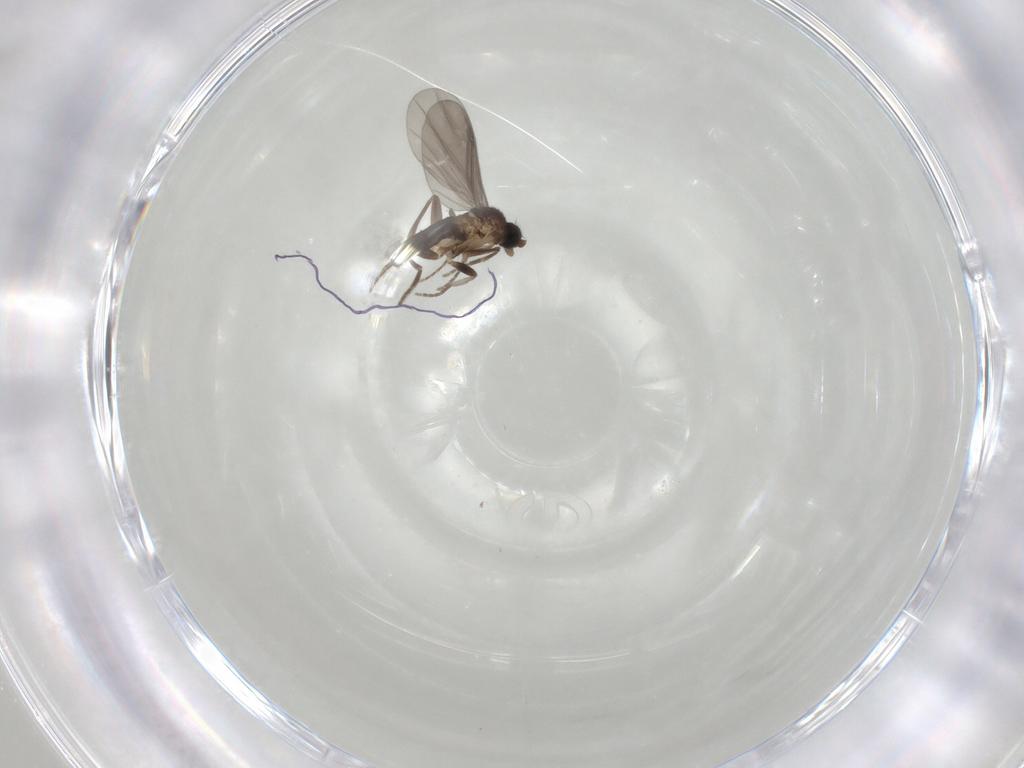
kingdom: Animalia
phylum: Arthropoda
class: Insecta
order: Diptera
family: Phoridae
